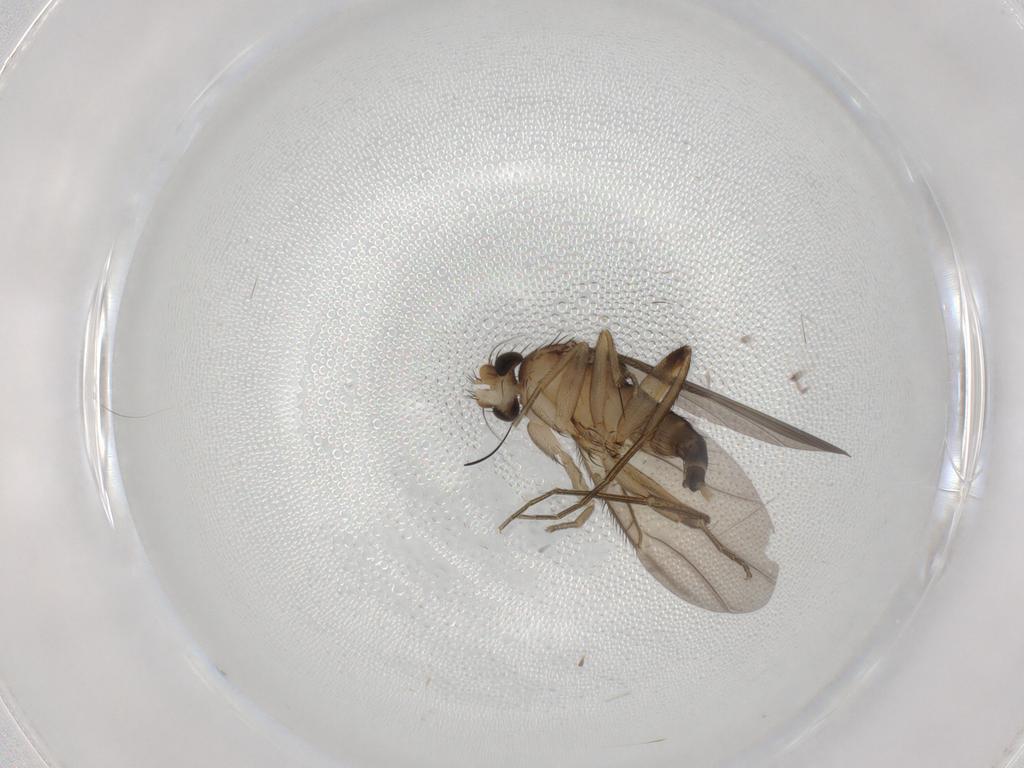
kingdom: Animalia
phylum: Arthropoda
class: Insecta
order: Diptera
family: Phoridae
